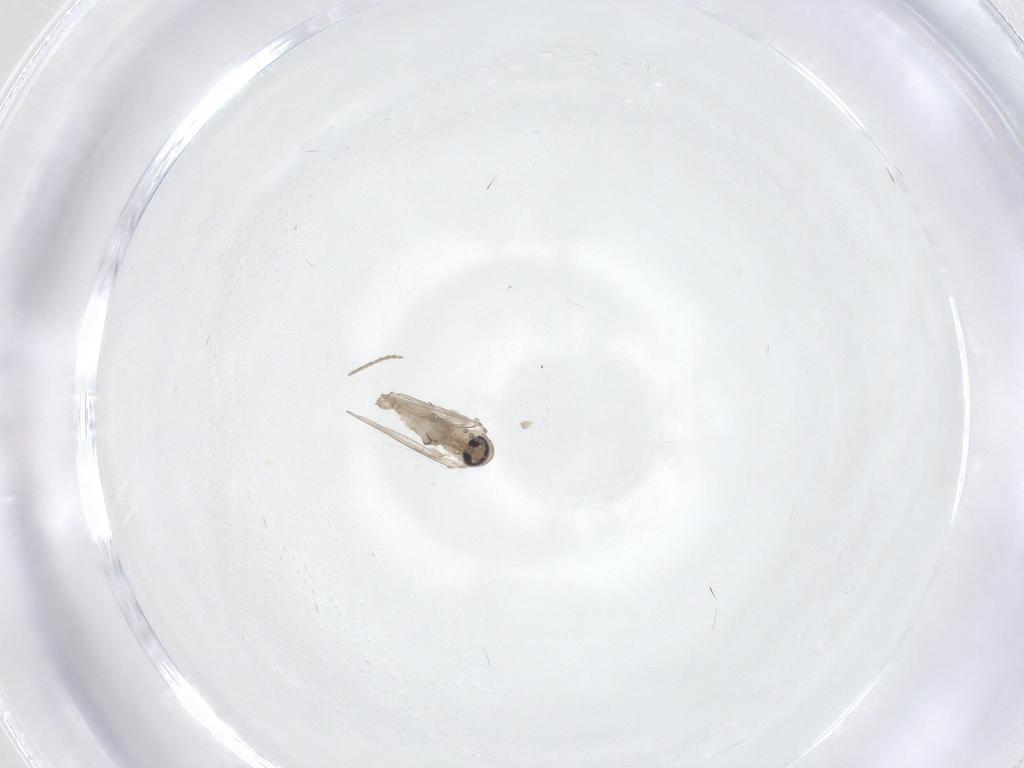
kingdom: Animalia
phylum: Arthropoda
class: Insecta
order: Diptera
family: Psychodidae
